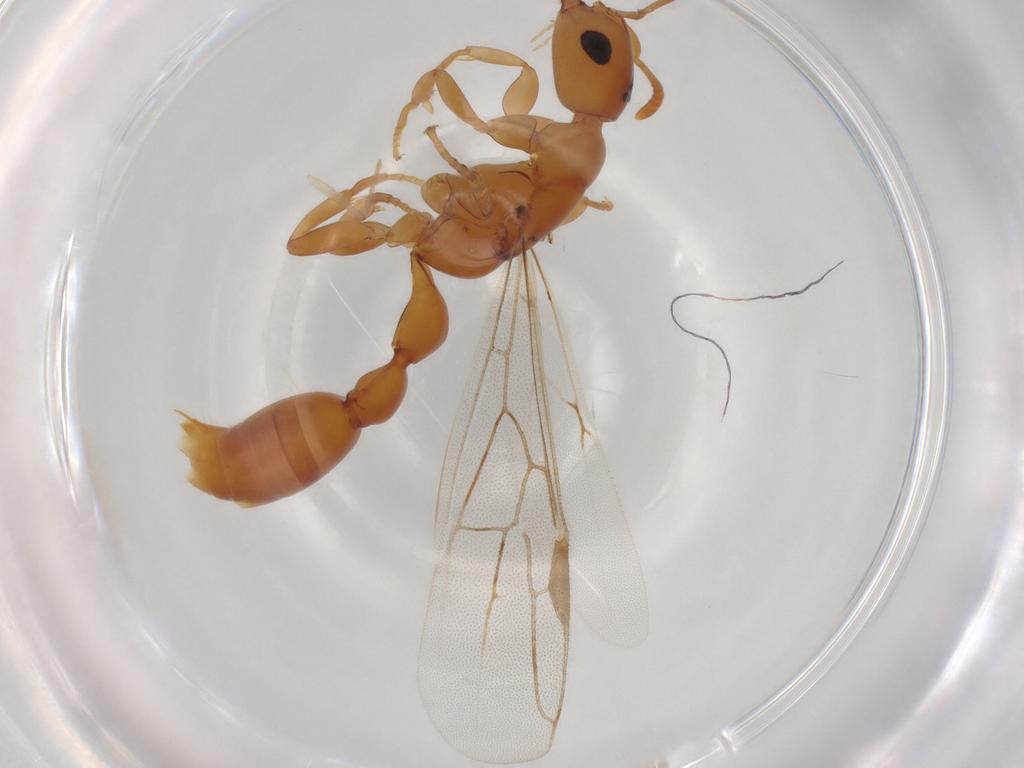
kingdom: Animalia
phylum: Arthropoda
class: Insecta
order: Hymenoptera
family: Formicidae
